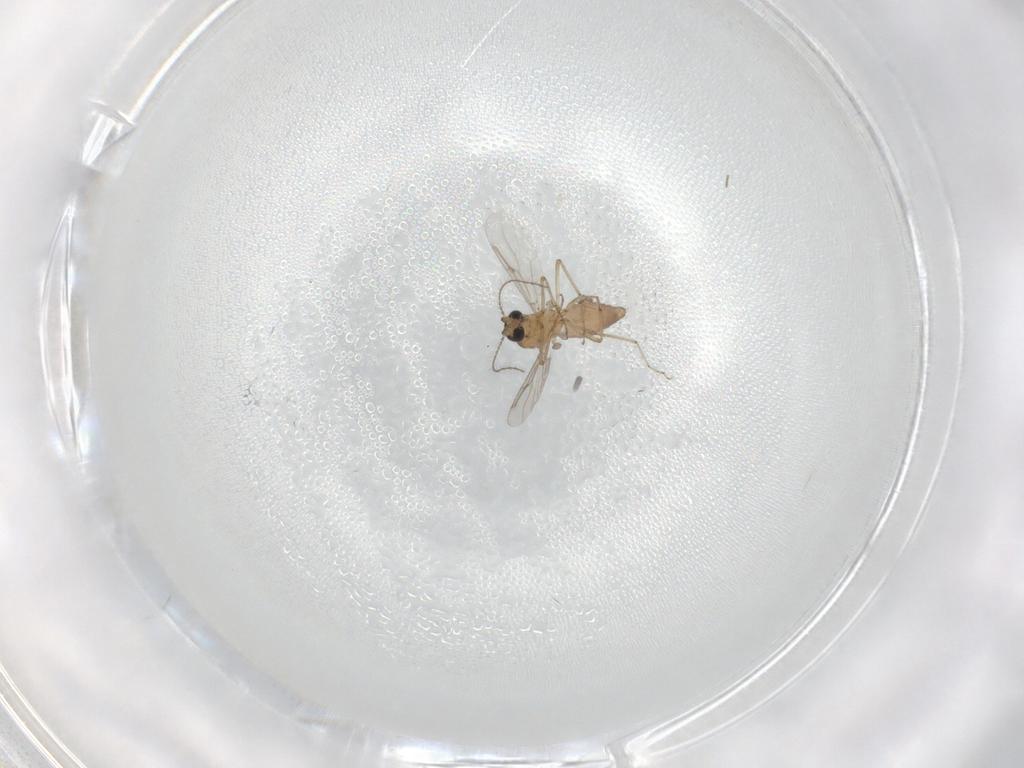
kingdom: Animalia
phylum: Arthropoda
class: Insecta
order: Diptera
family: Ceratopogonidae
